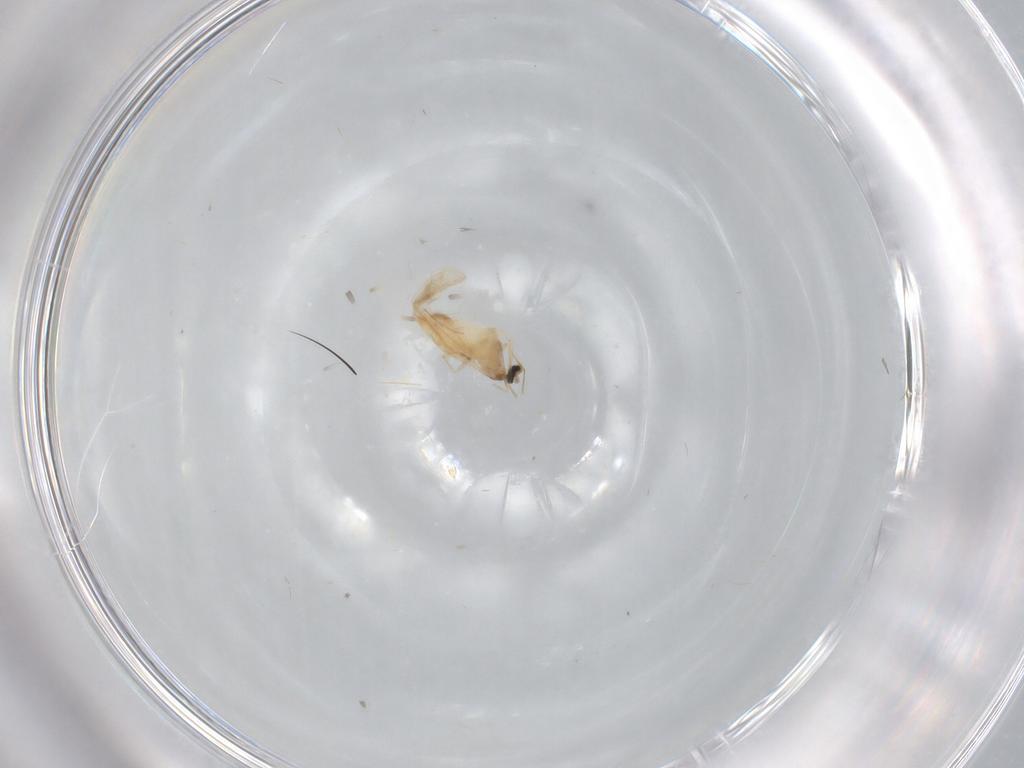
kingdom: Animalia
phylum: Arthropoda
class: Insecta
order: Diptera
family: Cecidomyiidae
